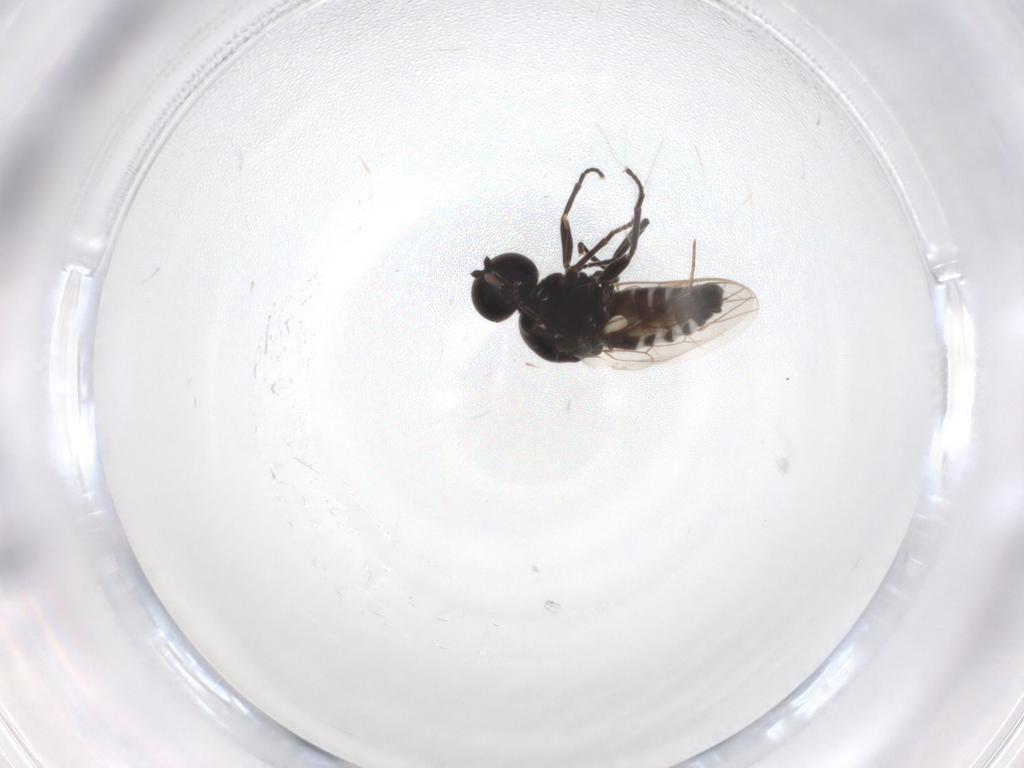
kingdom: Animalia
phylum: Arthropoda
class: Insecta
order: Diptera
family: Scenopinidae
